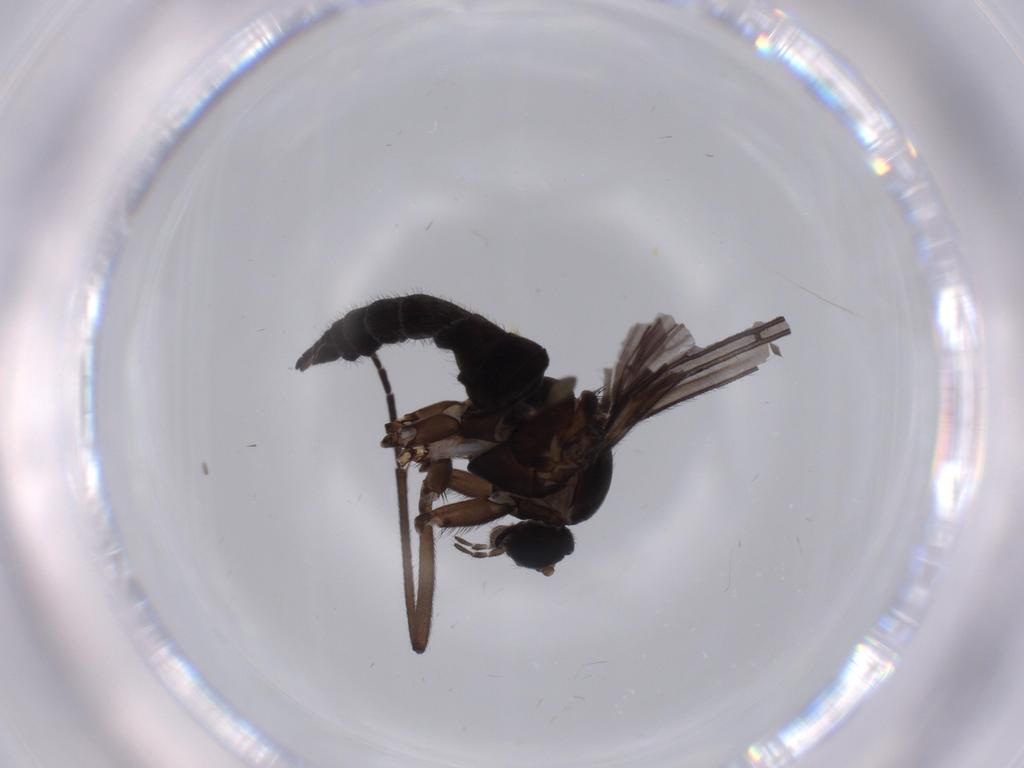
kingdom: Animalia
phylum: Arthropoda
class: Insecta
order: Diptera
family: Sciaridae
